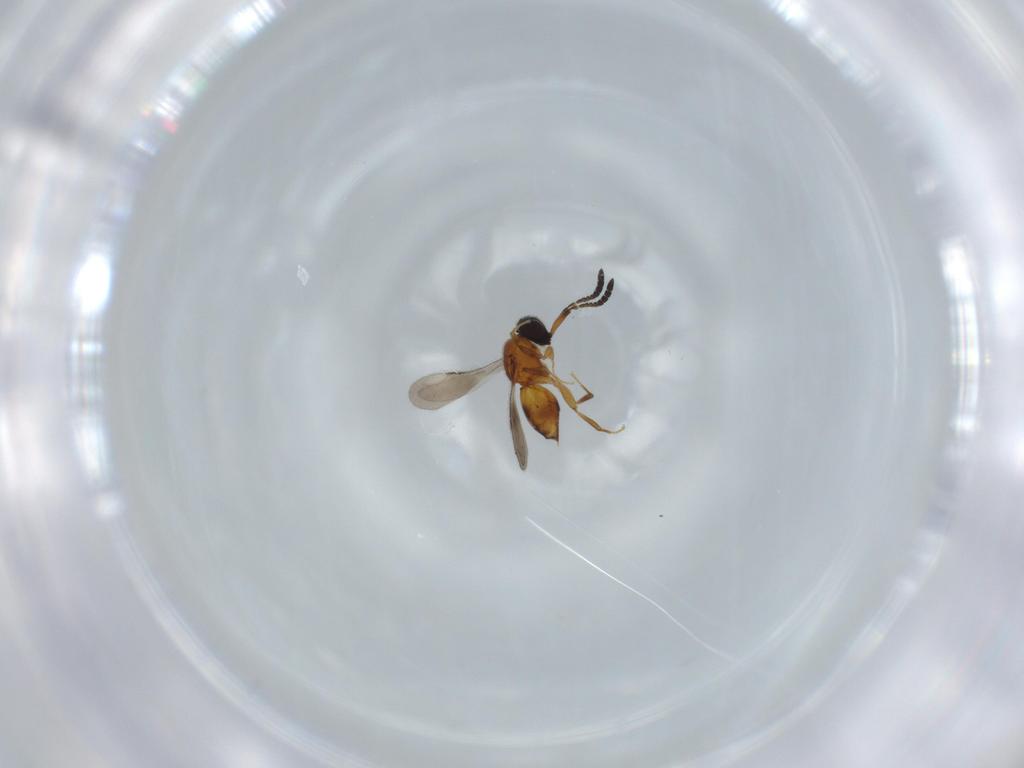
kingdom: Animalia
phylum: Arthropoda
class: Insecta
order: Hymenoptera
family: Ceraphronidae
